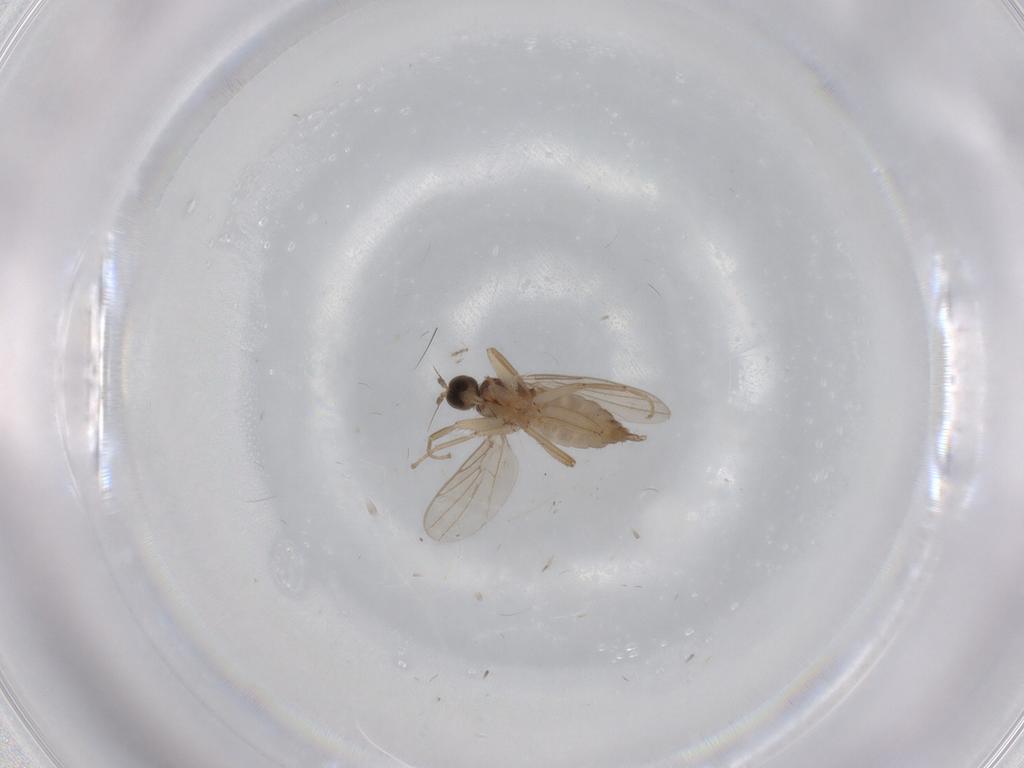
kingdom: Animalia
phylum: Arthropoda
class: Insecta
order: Diptera
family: Hybotidae
